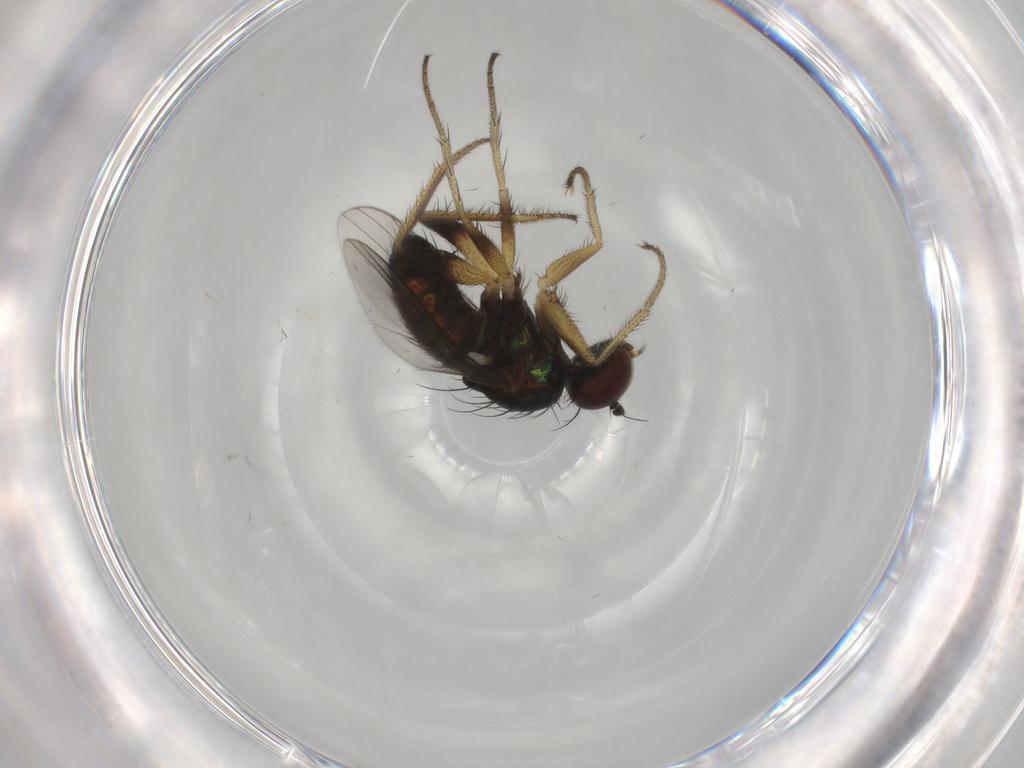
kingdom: Animalia
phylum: Arthropoda
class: Insecta
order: Diptera
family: Dolichopodidae
